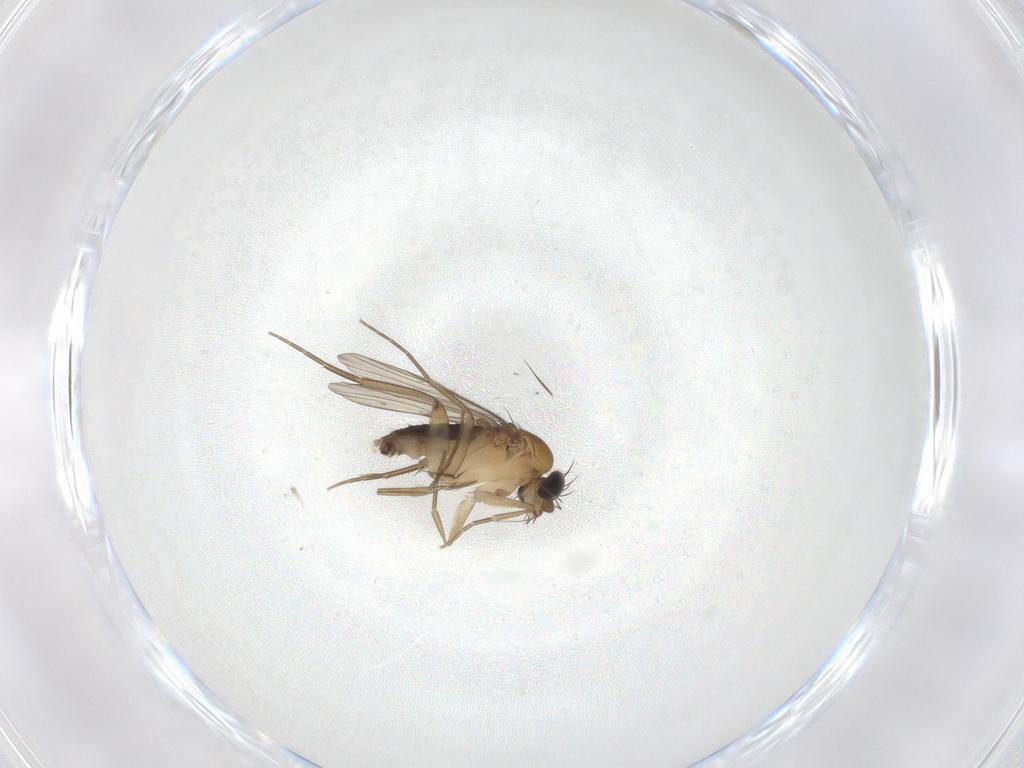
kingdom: Animalia
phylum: Arthropoda
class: Insecta
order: Diptera
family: Phoridae
